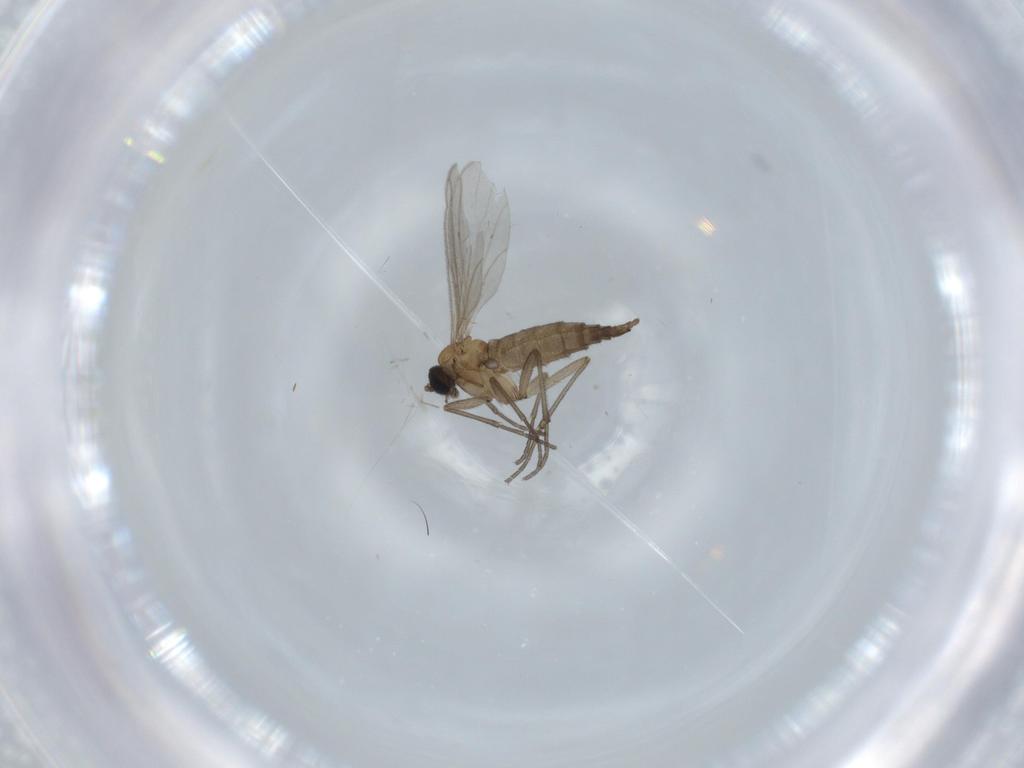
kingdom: Animalia
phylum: Arthropoda
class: Insecta
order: Diptera
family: Sciaridae
